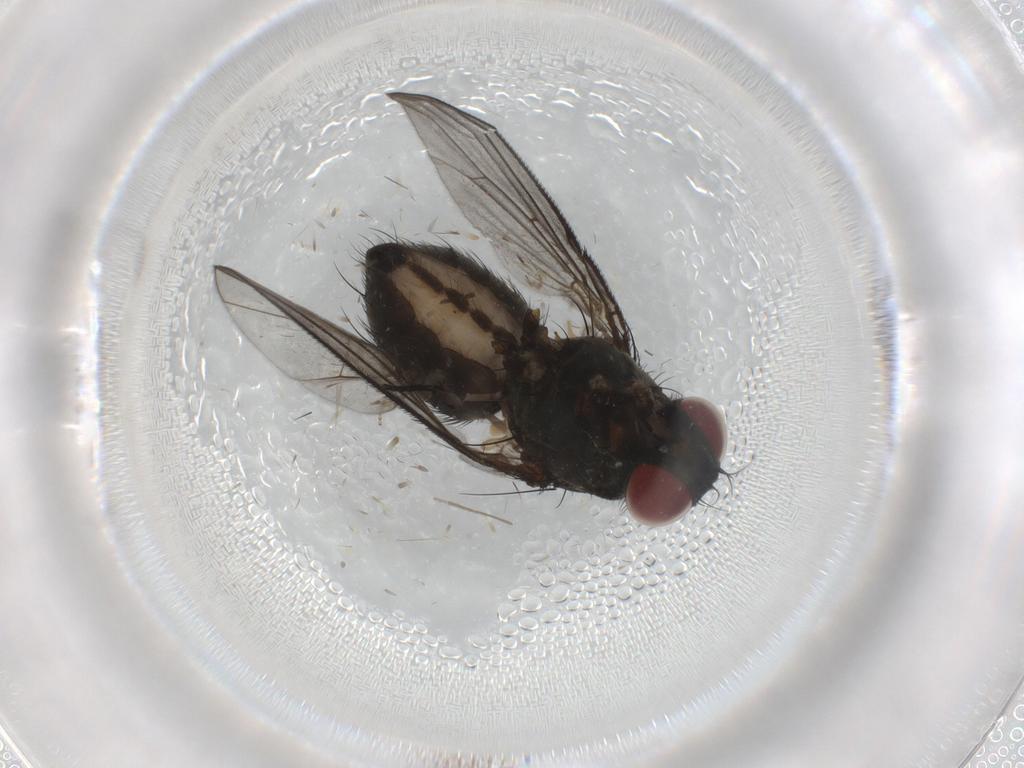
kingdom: Animalia
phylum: Arthropoda
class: Insecta
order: Diptera
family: Muscidae
